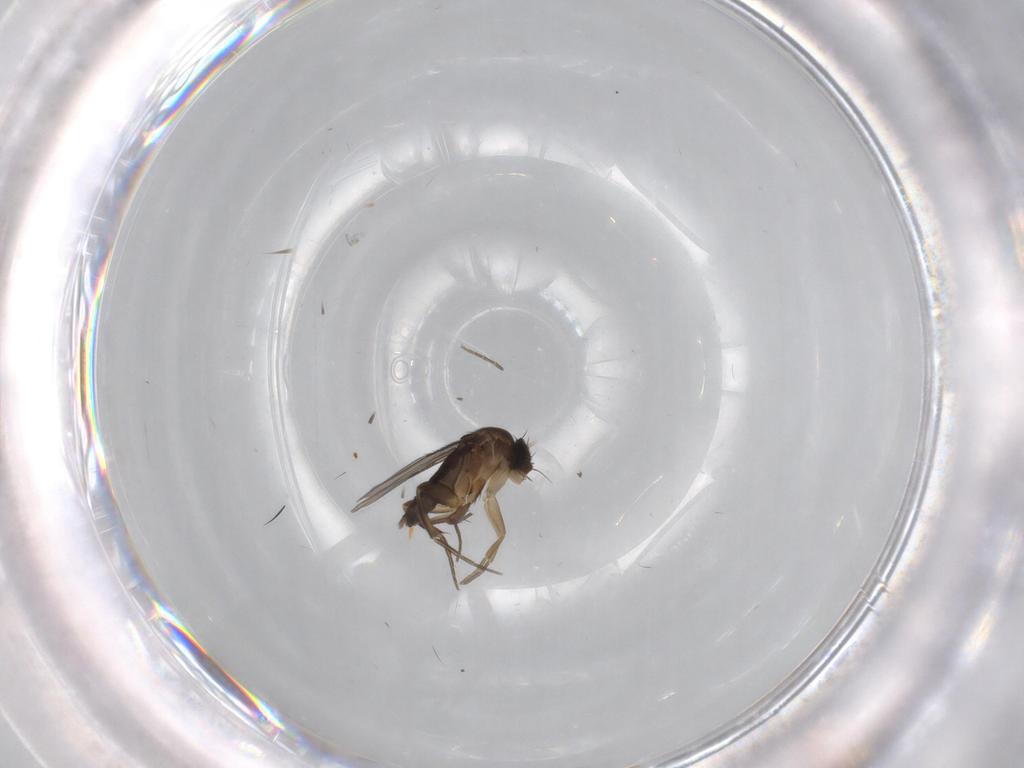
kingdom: Animalia
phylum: Arthropoda
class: Insecta
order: Diptera
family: Phoridae
